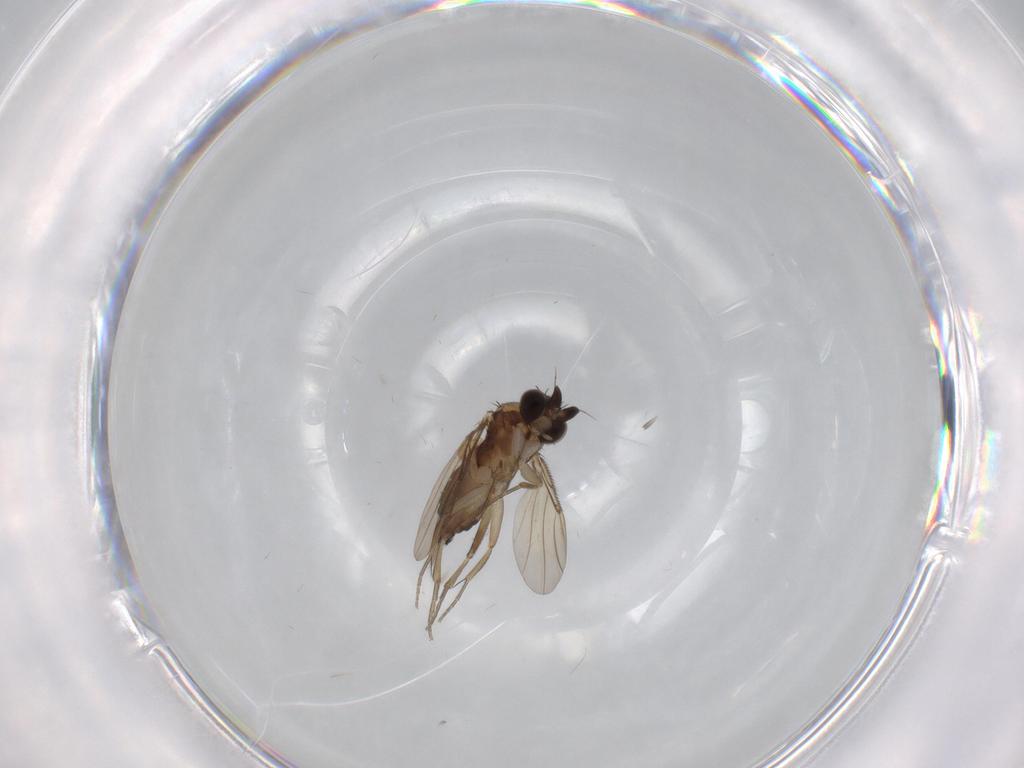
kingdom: Animalia
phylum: Arthropoda
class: Insecta
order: Diptera
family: Phoridae
